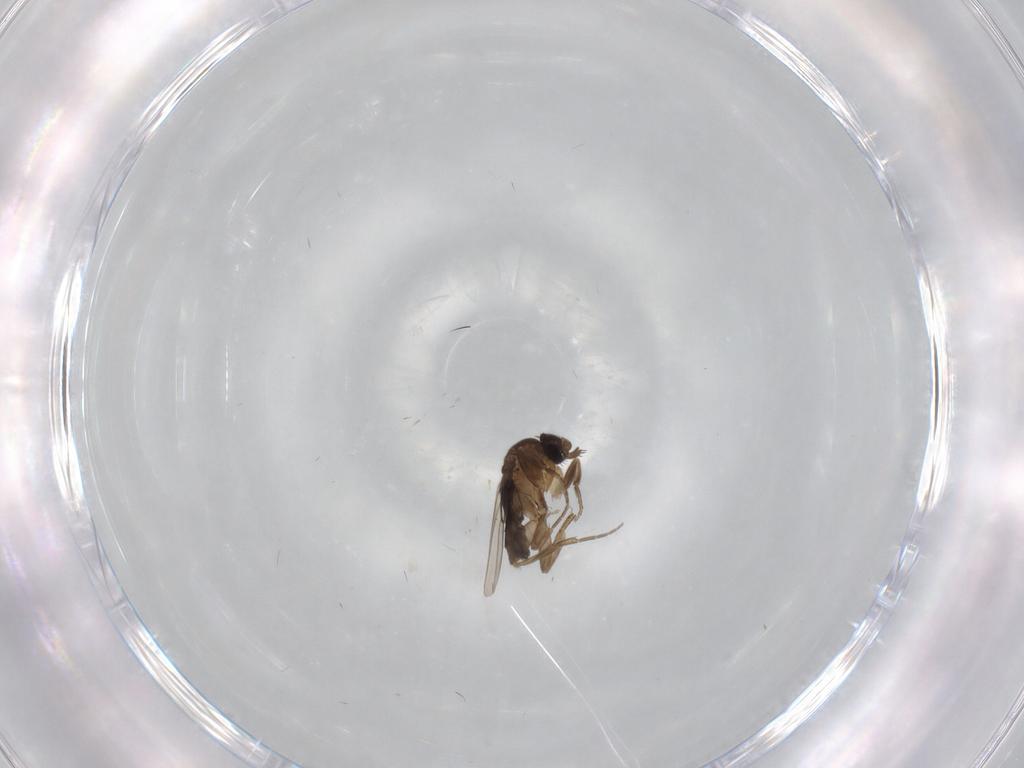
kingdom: Animalia
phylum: Arthropoda
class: Insecta
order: Diptera
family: Phoridae
